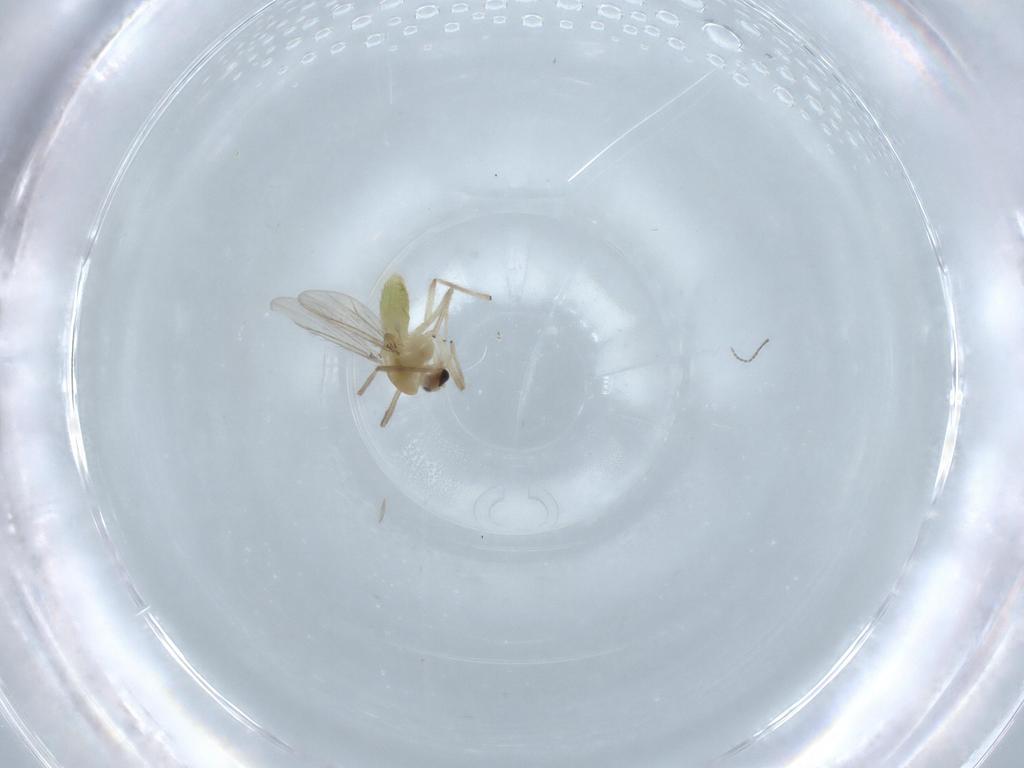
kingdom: Animalia
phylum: Arthropoda
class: Insecta
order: Diptera
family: Chironomidae
